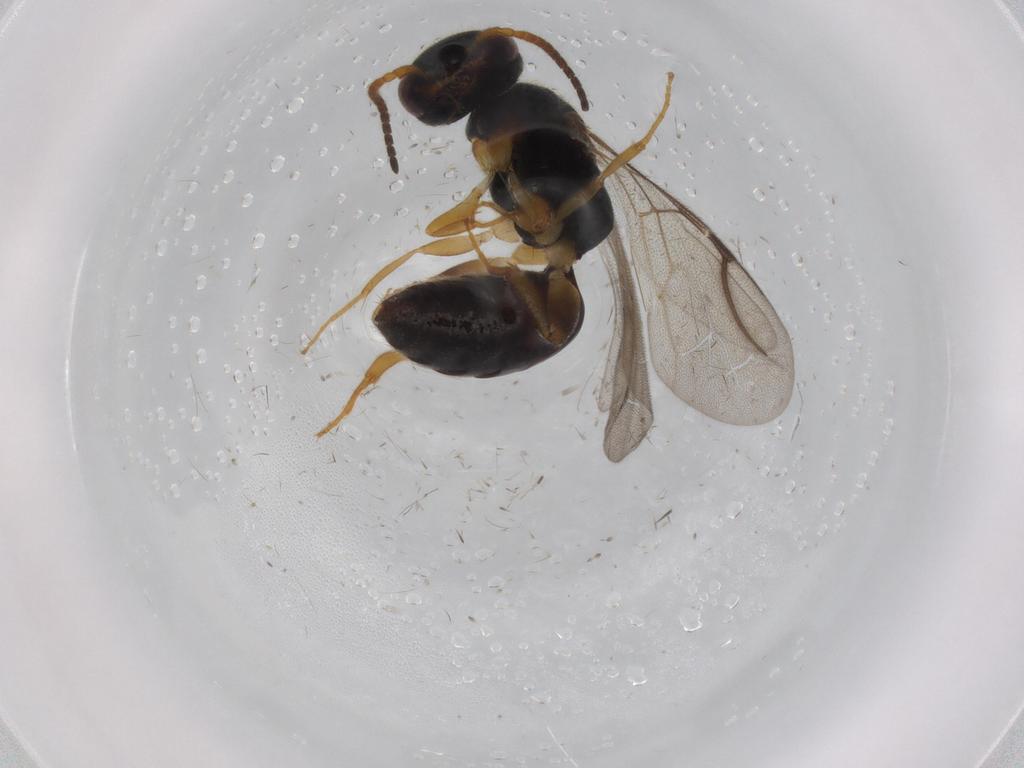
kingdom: Animalia
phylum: Arthropoda
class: Insecta
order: Hymenoptera
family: Bethylidae
